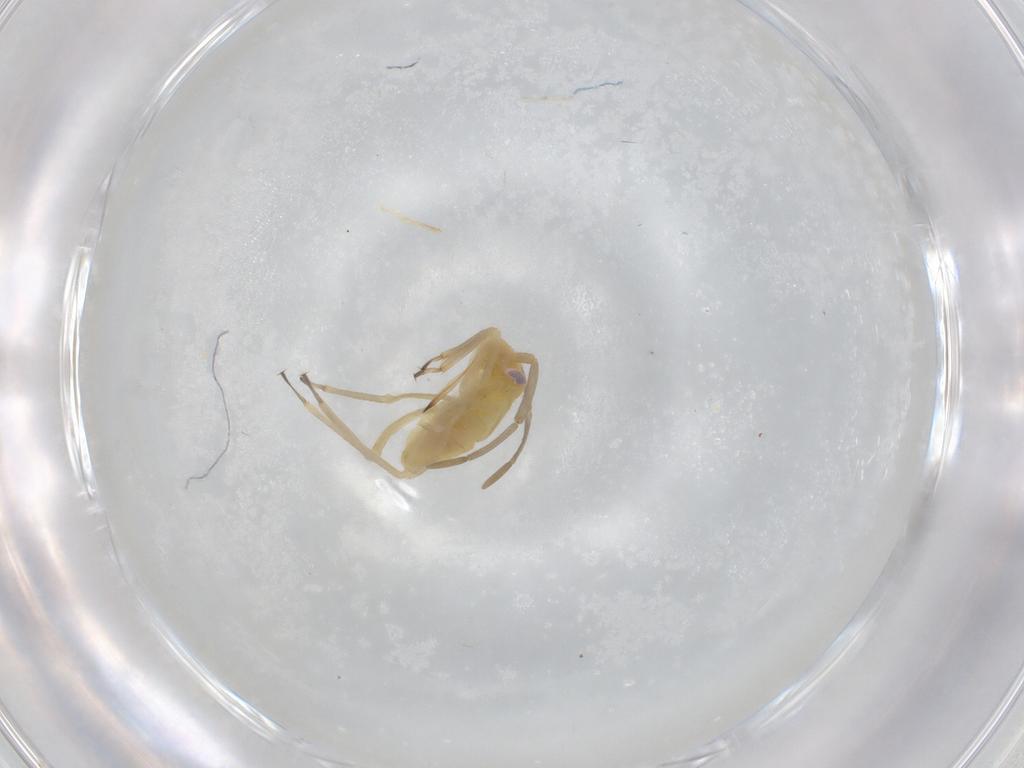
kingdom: Animalia
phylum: Arthropoda
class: Insecta
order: Hemiptera
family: Miridae
